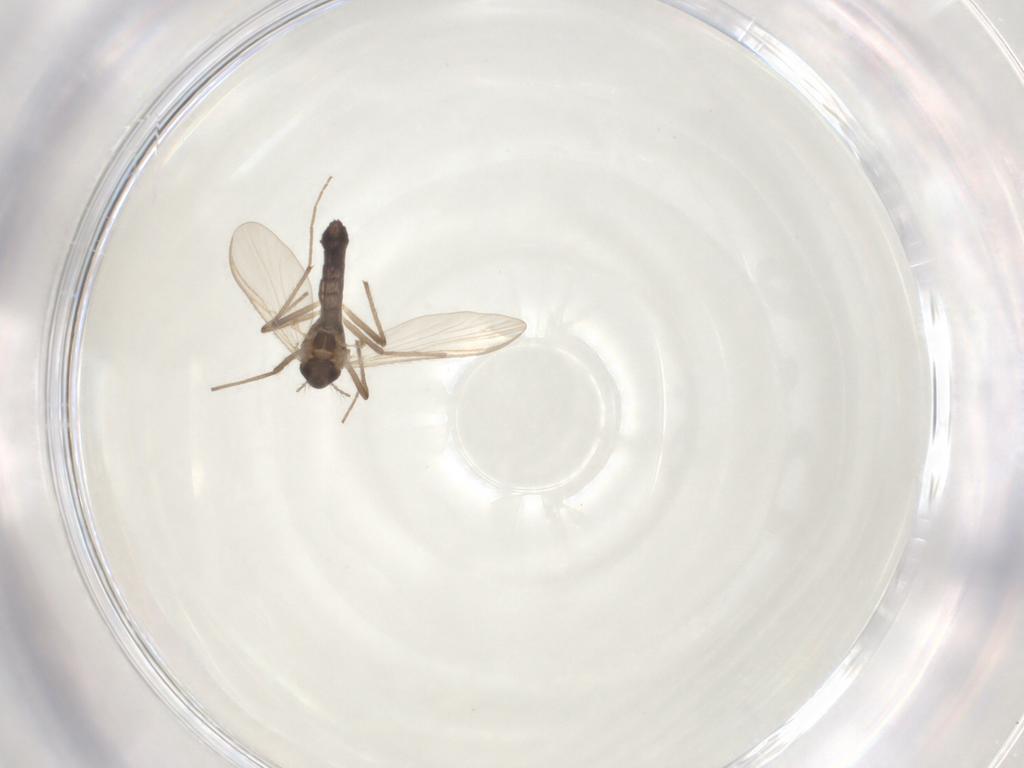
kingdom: Animalia
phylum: Arthropoda
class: Insecta
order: Diptera
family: Chironomidae
